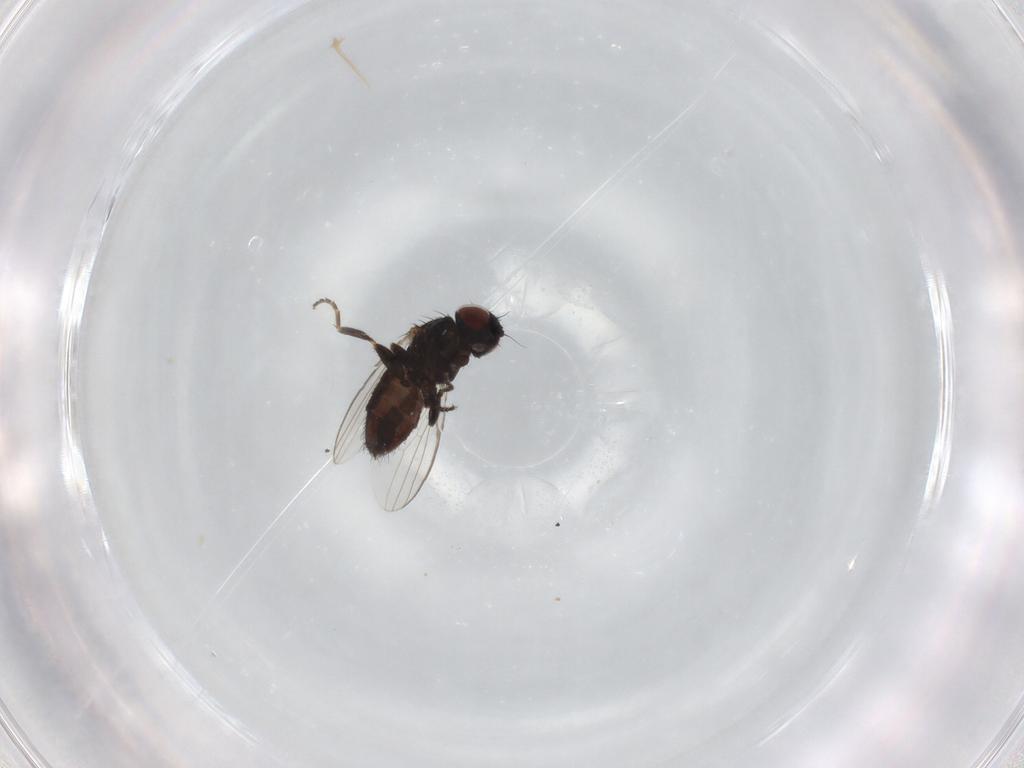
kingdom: Animalia
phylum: Arthropoda
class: Insecta
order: Diptera
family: Milichiidae
